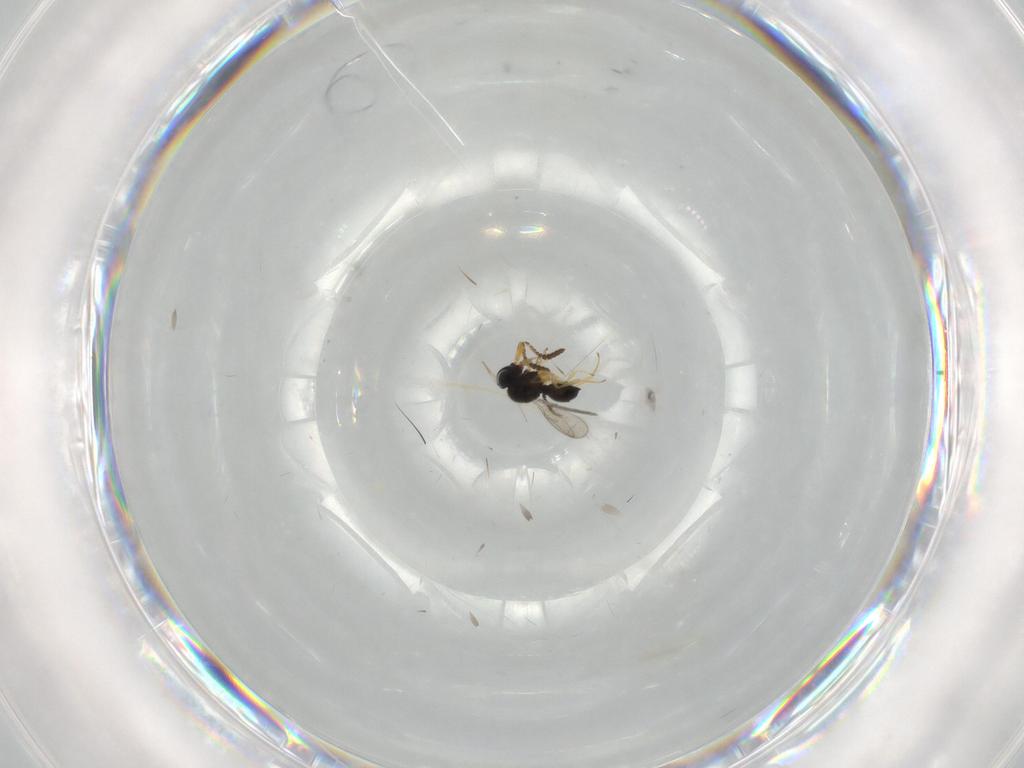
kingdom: Animalia
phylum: Arthropoda
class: Insecta
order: Hymenoptera
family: Scelionidae
